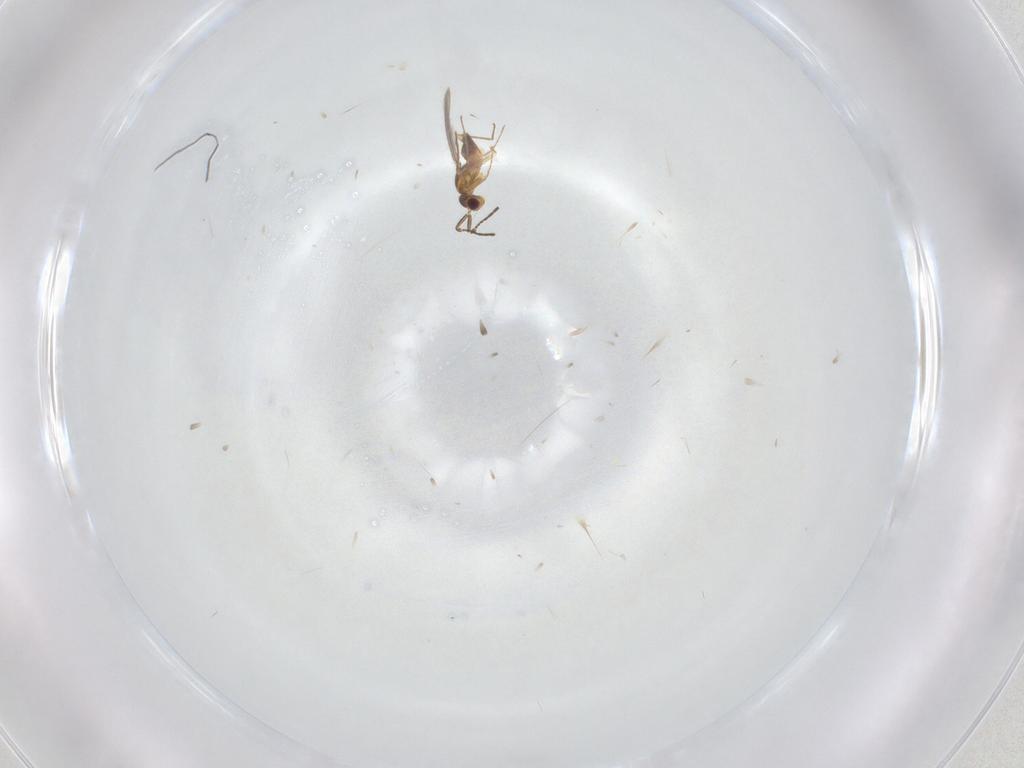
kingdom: Animalia
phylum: Arthropoda
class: Insecta
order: Hymenoptera
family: Mymaridae
